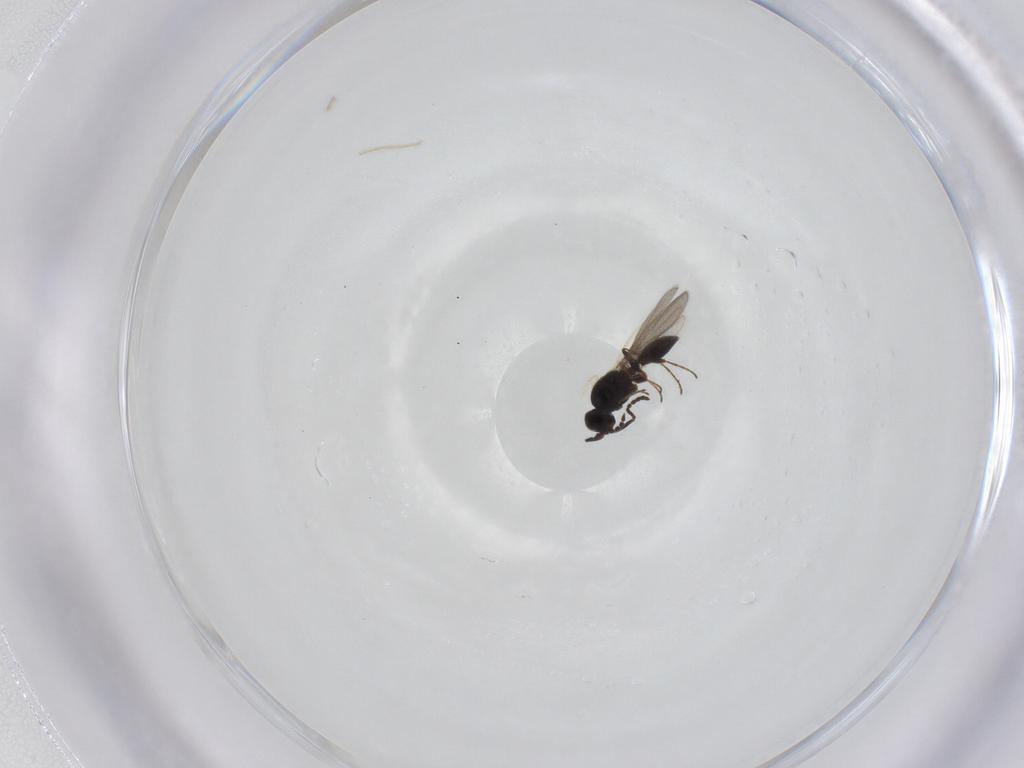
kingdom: Animalia
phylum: Arthropoda
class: Insecta
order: Hymenoptera
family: Platygastridae
